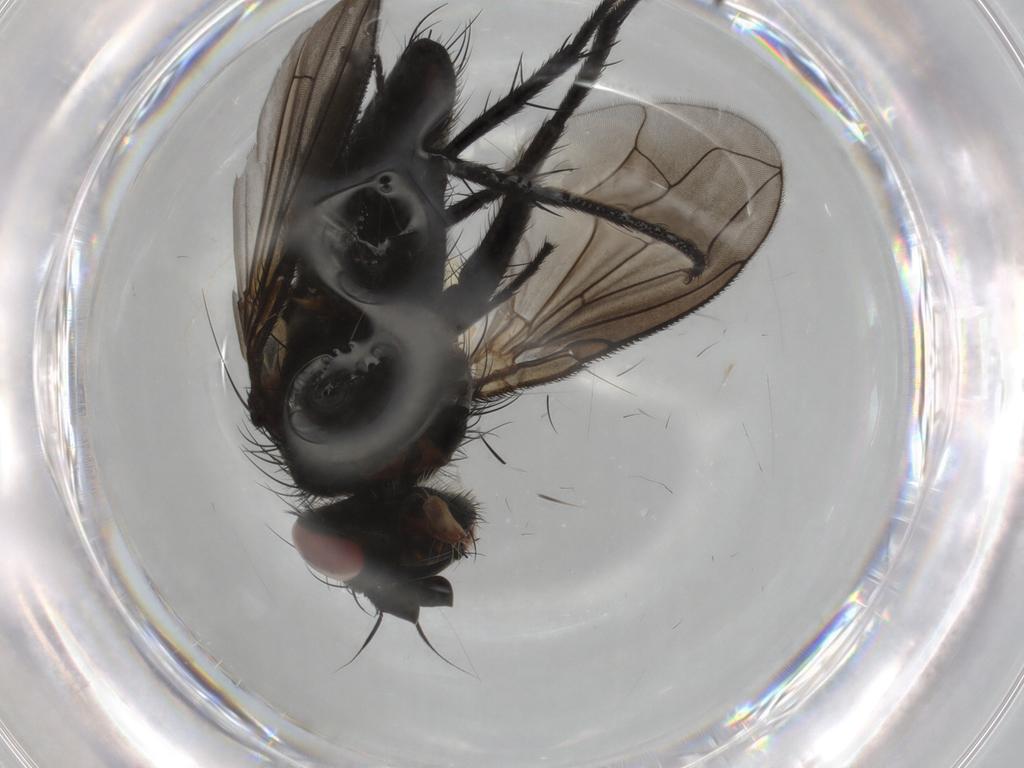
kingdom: Animalia
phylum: Arthropoda
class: Insecta
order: Diptera
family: Tachinidae
